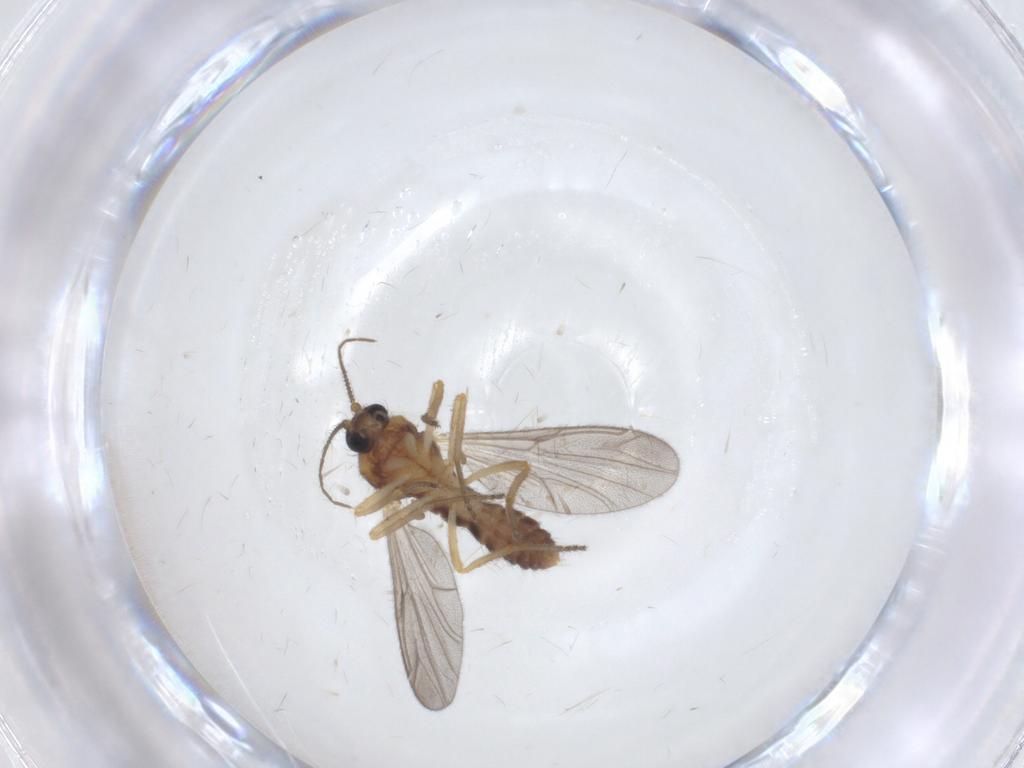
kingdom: Animalia
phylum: Arthropoda
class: Insecta
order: Diptera
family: Ceratopogonidae
